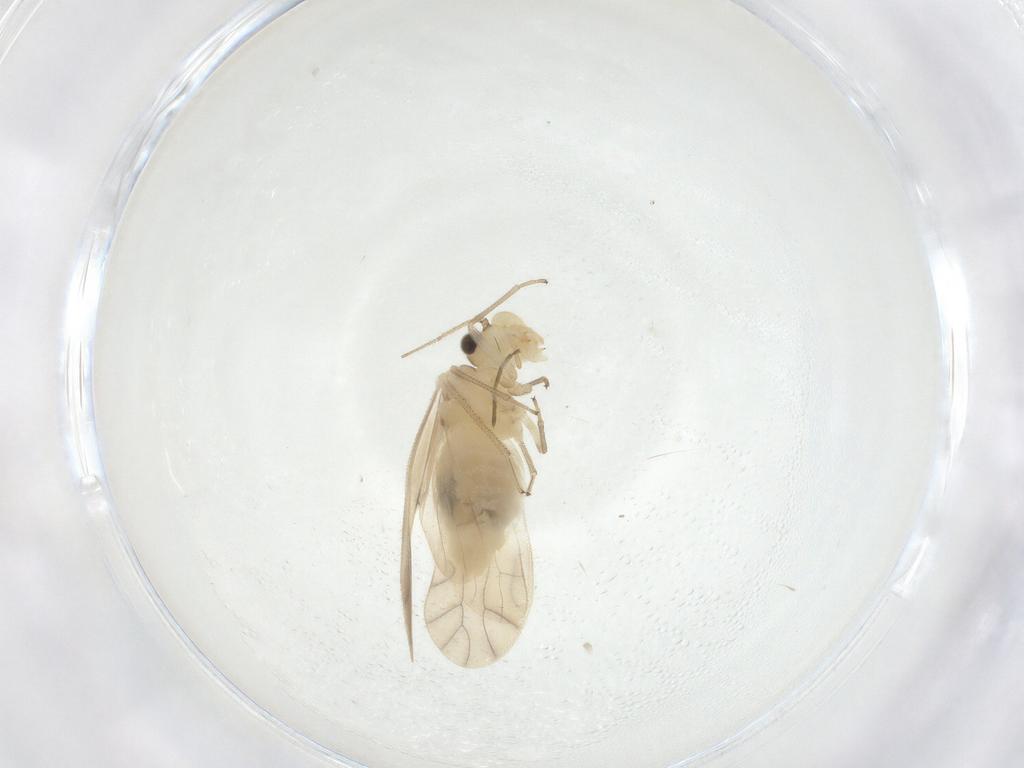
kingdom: Animalia
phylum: Arthropoda
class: Insecta
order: Psocodea
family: Caeciliusidae
